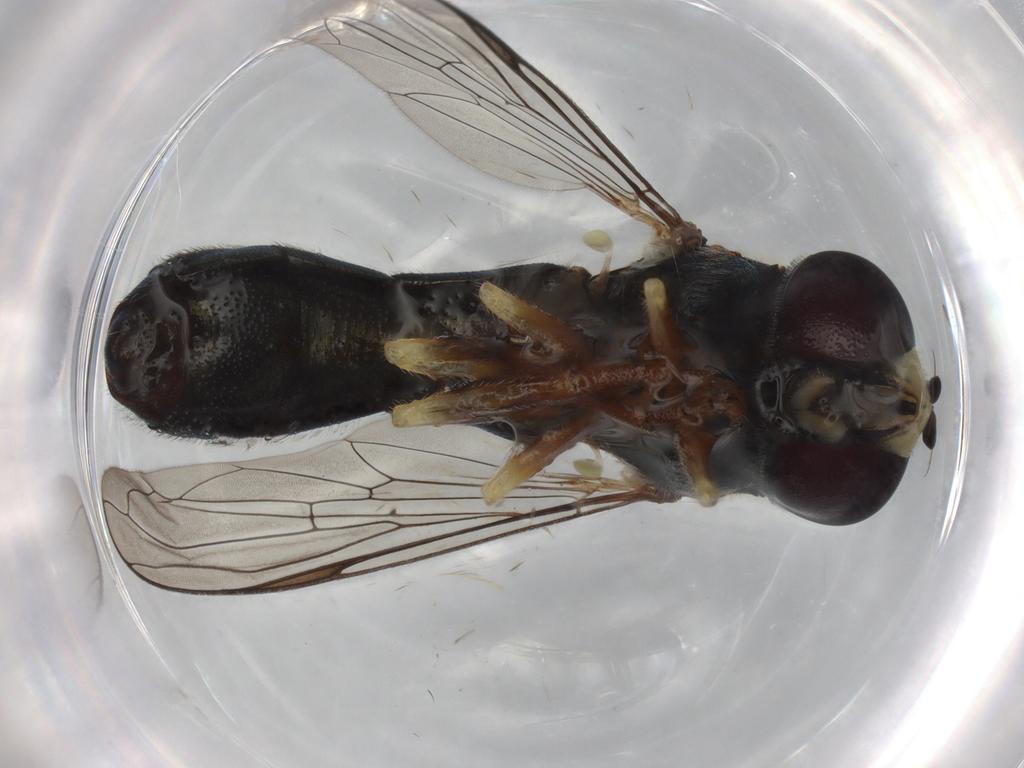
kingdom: Animalia
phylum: Arthropoda
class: Insecta
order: Diptera
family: Phoridae
